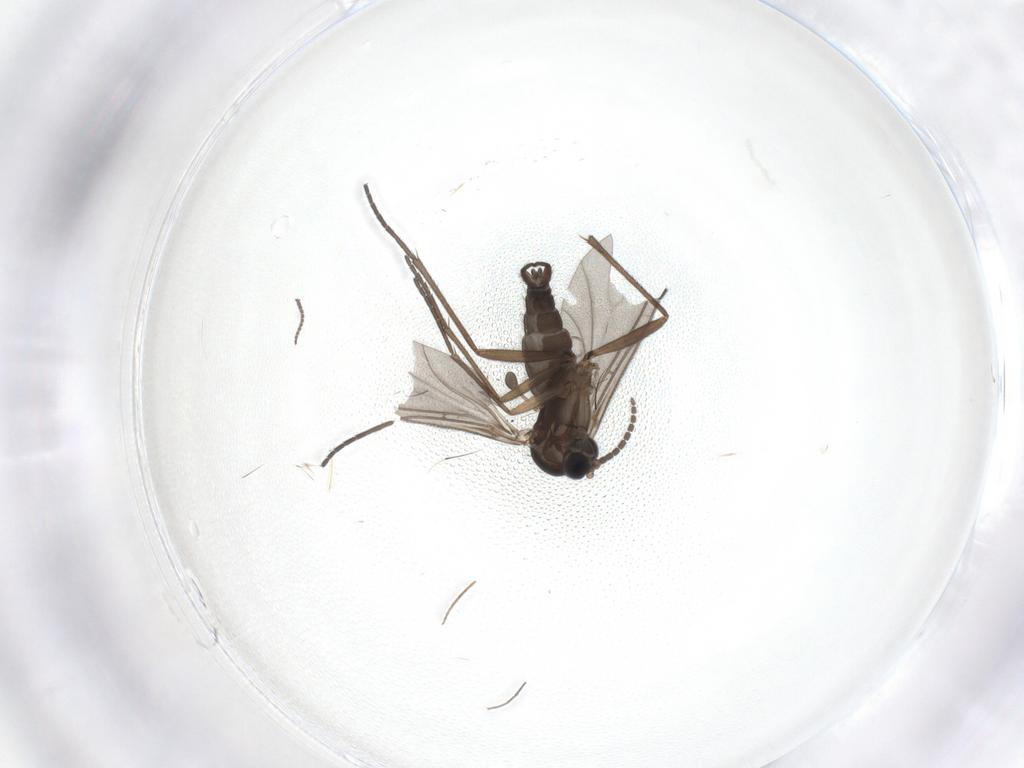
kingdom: Animalia
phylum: Arthropoda
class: Insecta
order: Diptera
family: Sciaridae
